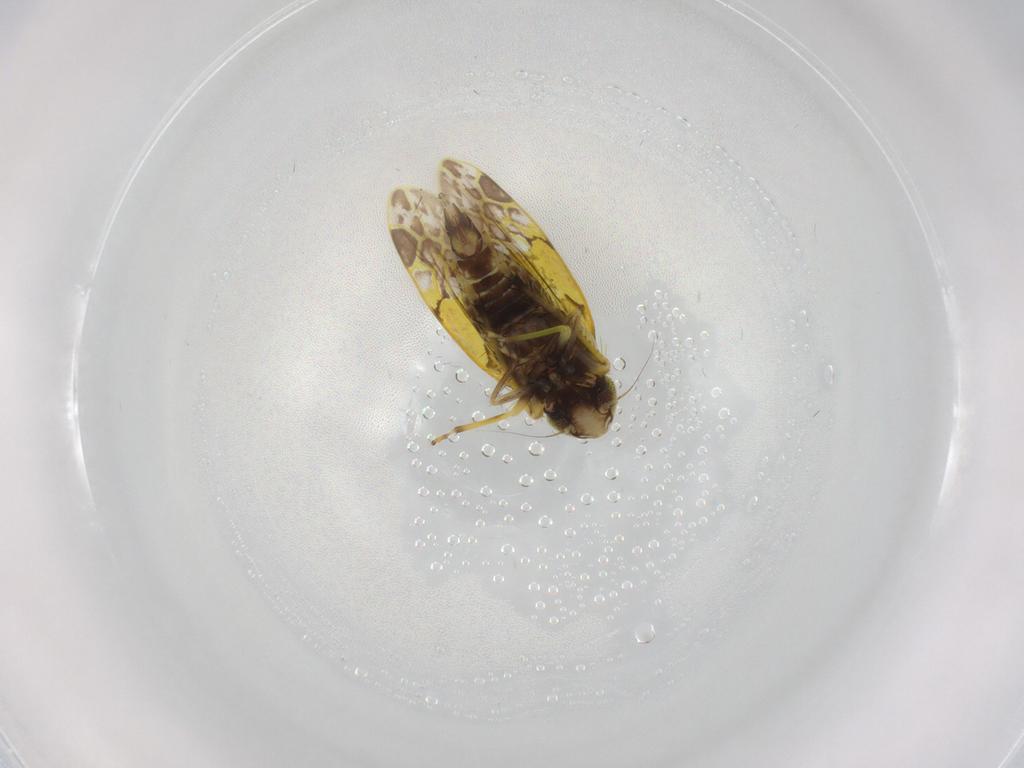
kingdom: Animalia
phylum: Arthropoda
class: Insecta
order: Hemiptera
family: Cicadellidae
